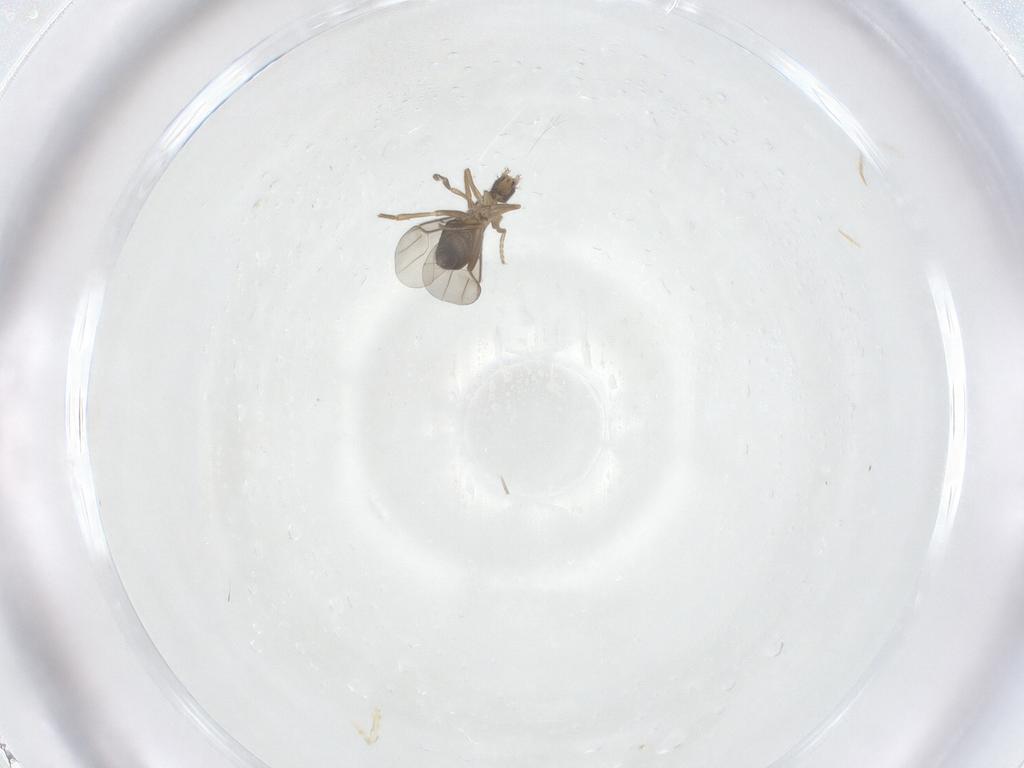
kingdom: Animalia
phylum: Arthropoda
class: Insecta
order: Diptera
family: Phoridae
